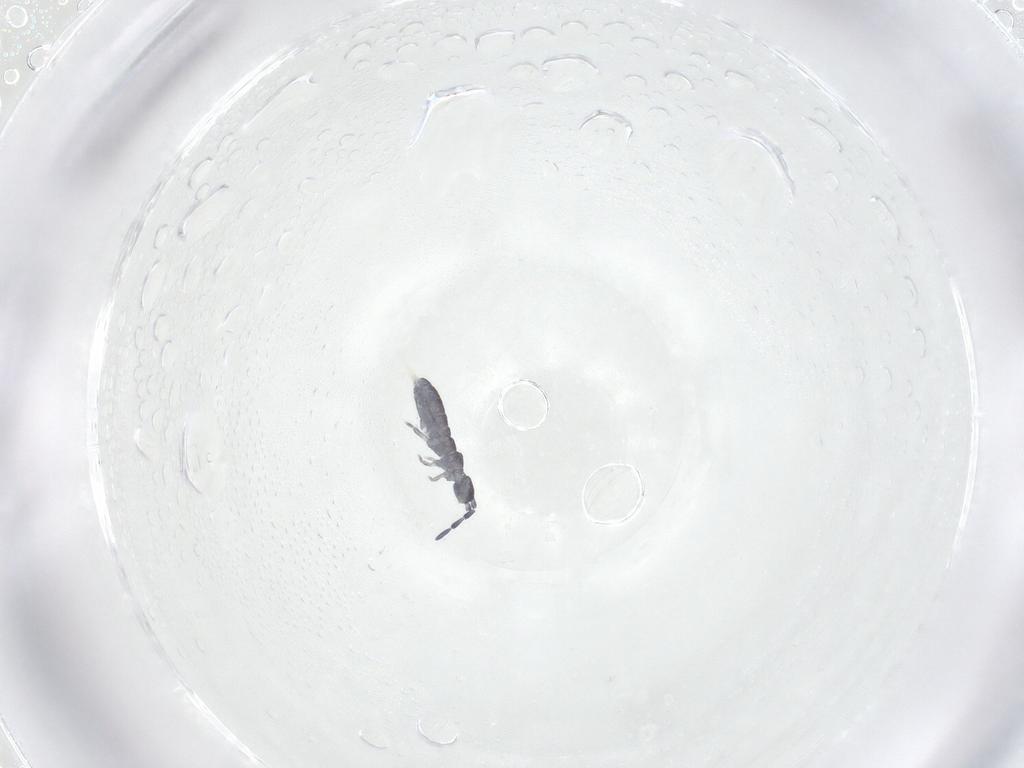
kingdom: Animalia
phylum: Arthropoda
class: Collembola
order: Entomobryomorpha
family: Isotomidae
